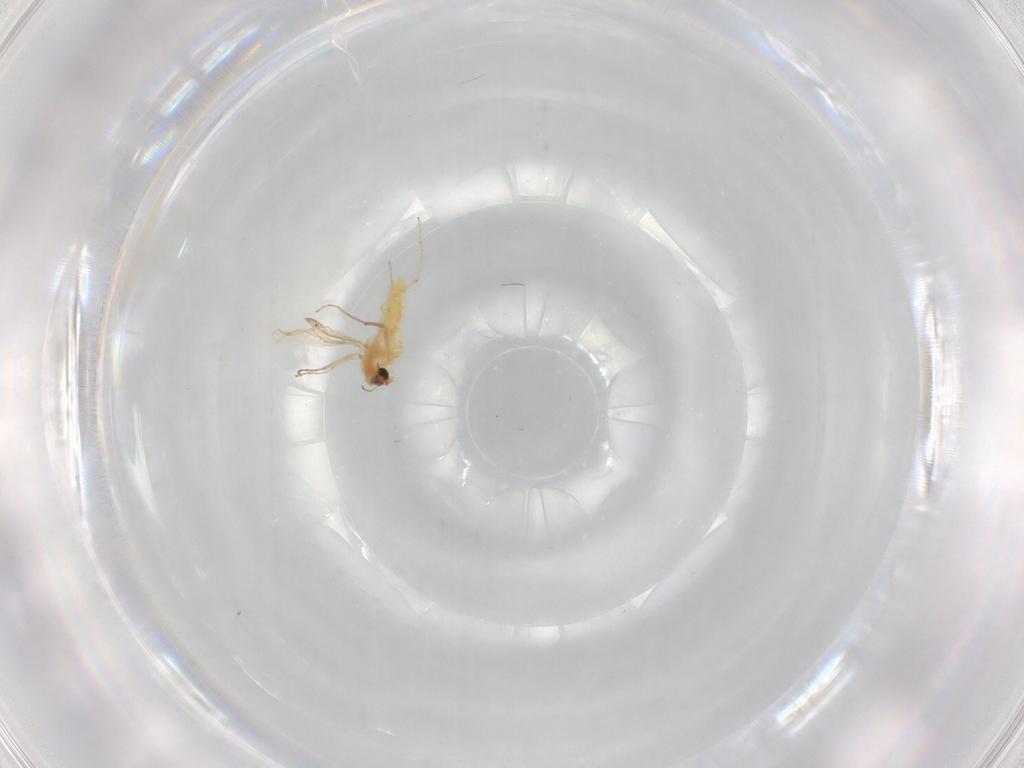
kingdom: Animalia
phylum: Arthropoda
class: Insecta
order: Diptera
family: Chironomidae
